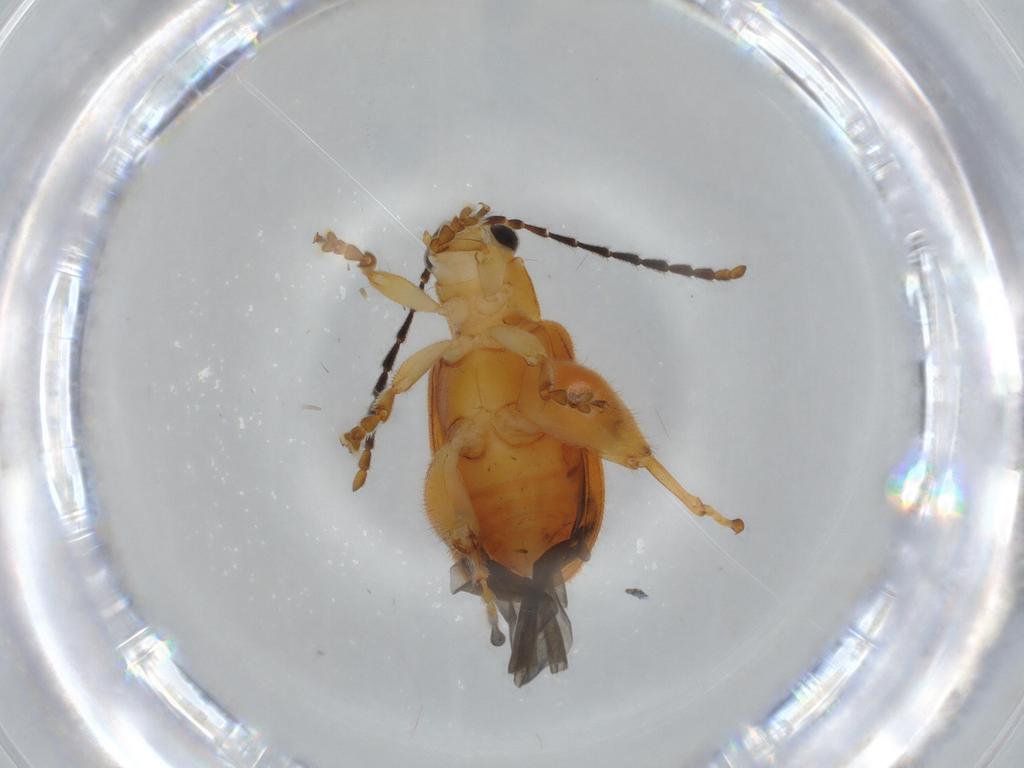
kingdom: Animalia
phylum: Arthropoda
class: Insecta
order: Coleoptera
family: Chrysomelidae
